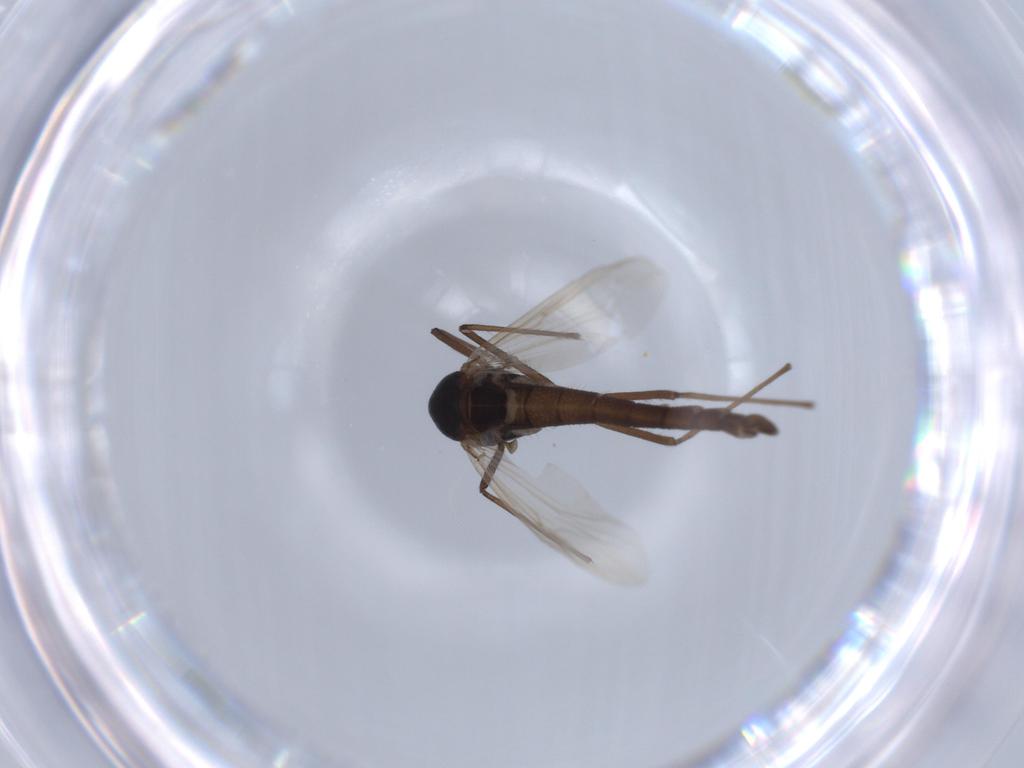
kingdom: Animalia
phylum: Arthropoda
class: Insecta
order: Diptera
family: Chironomidae
